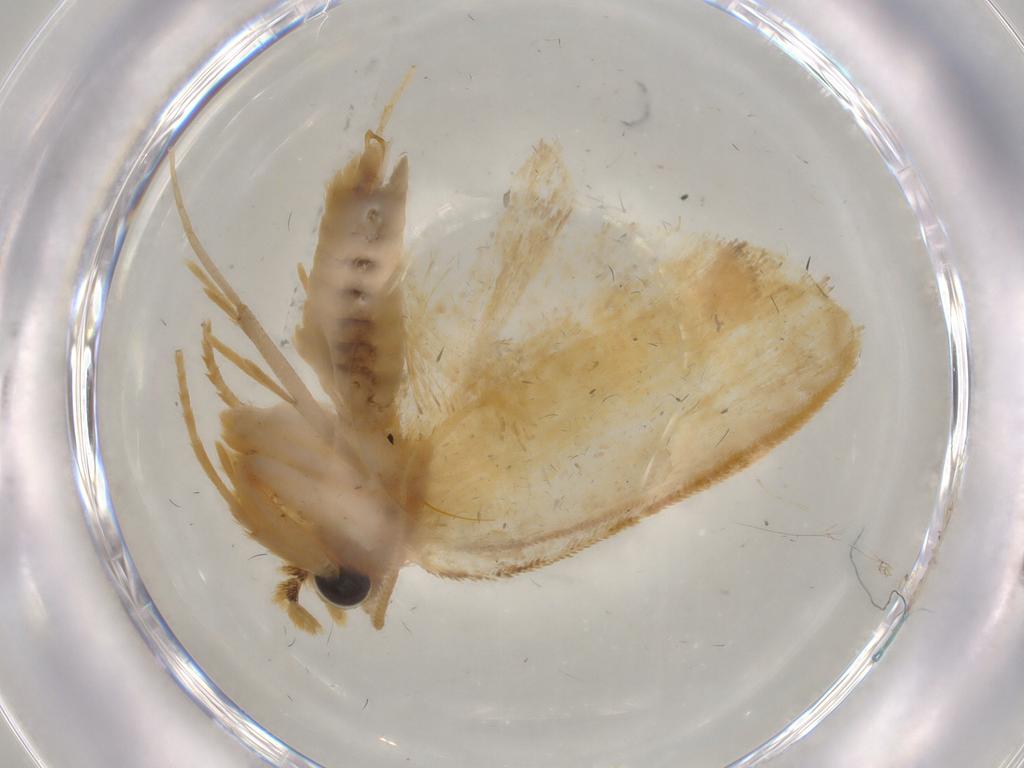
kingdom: Animalia
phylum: Arthropoda
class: Insecta
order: Lepidoptera
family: Psychidae
